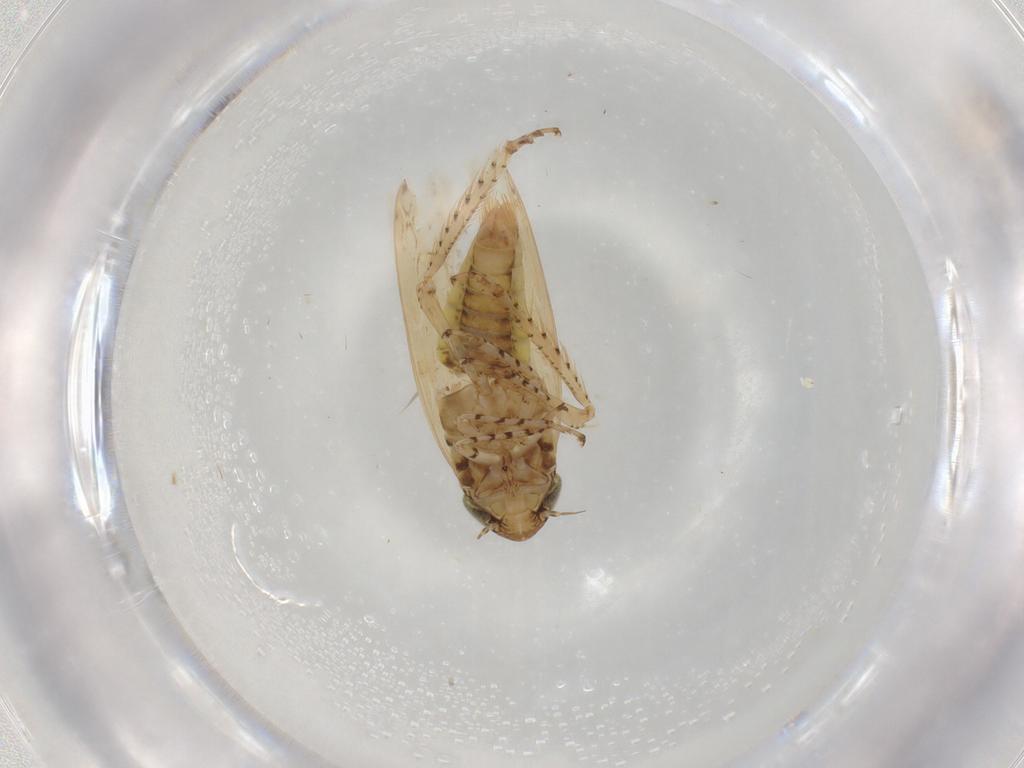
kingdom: Animalia
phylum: Arthropoda
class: Insecta
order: Hemiptera
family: Cicadellidae
